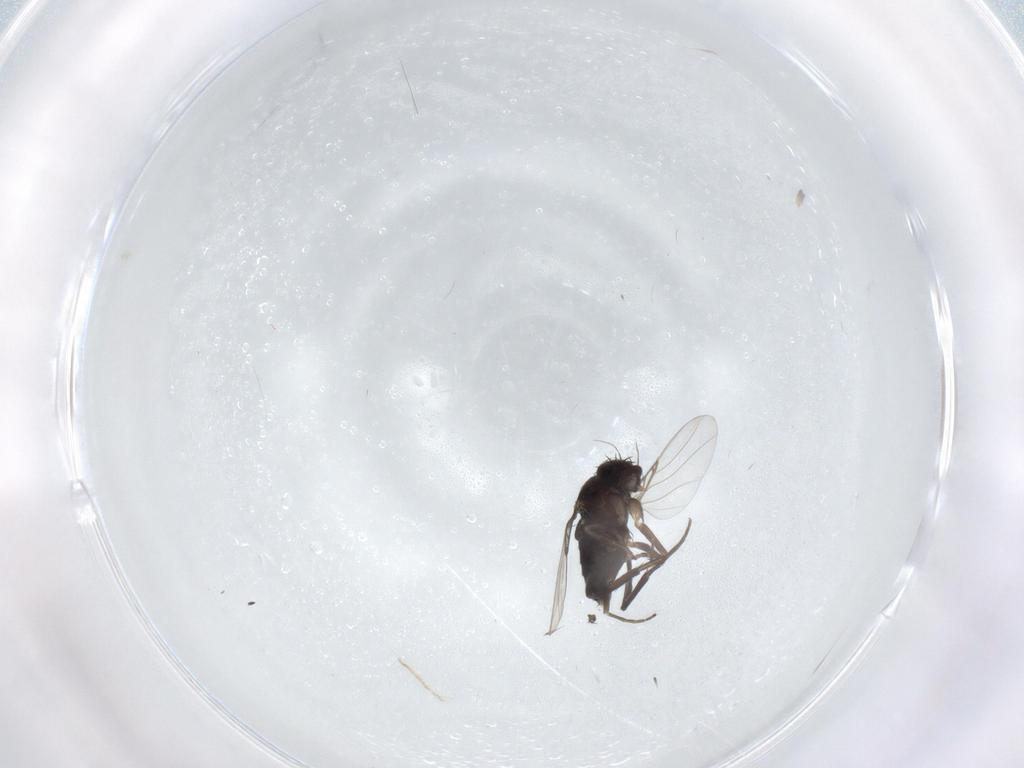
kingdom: Animalia
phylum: Arthropoda
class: Insecta
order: Diptera
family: Phoridae
